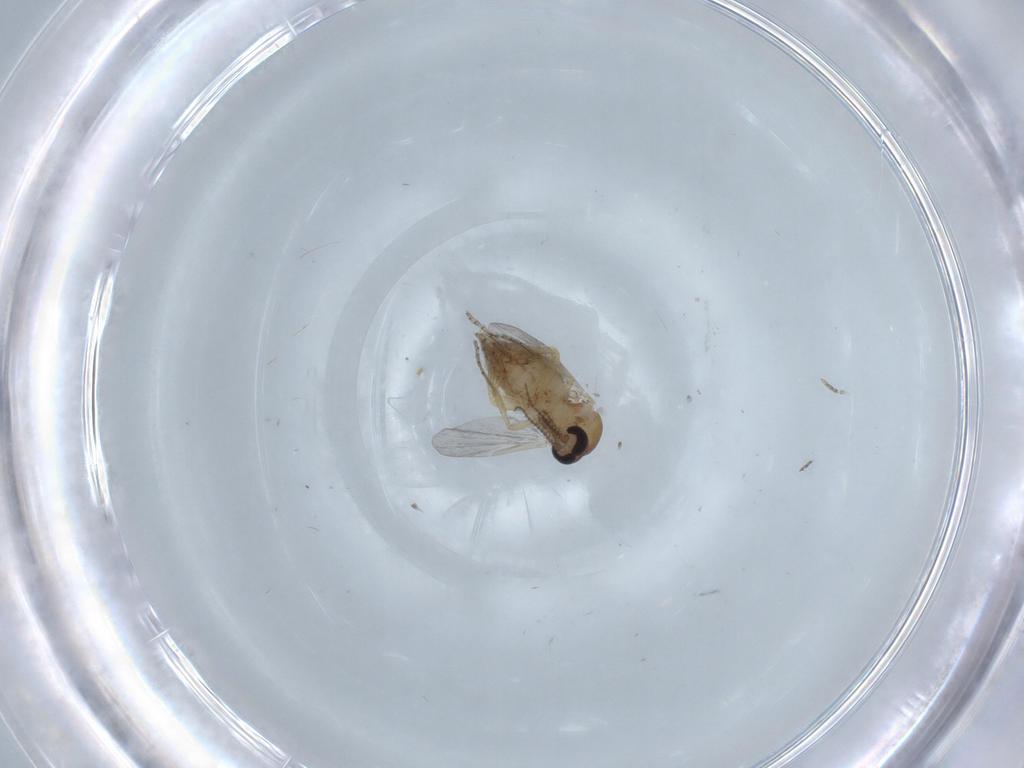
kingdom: Animalia
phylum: Arthropoda
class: Insecta
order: Diptera
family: Ceratopogonidae
